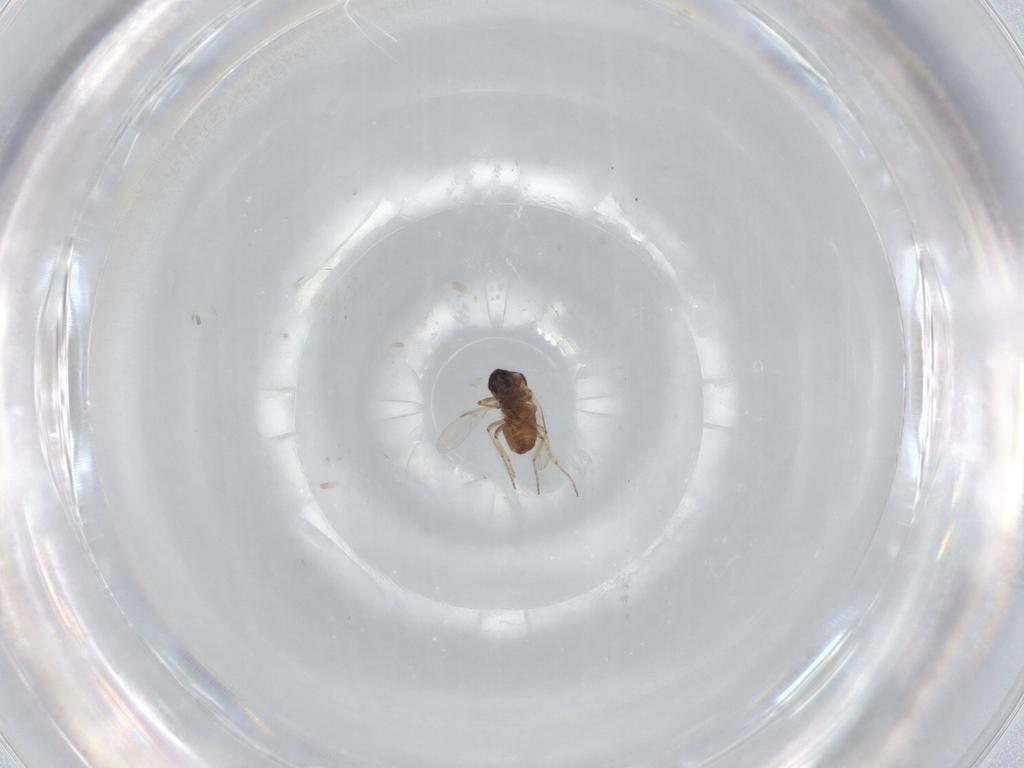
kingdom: Animalia
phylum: Arthropoda
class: Insecta
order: Diptera
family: Ceratopogonidae
